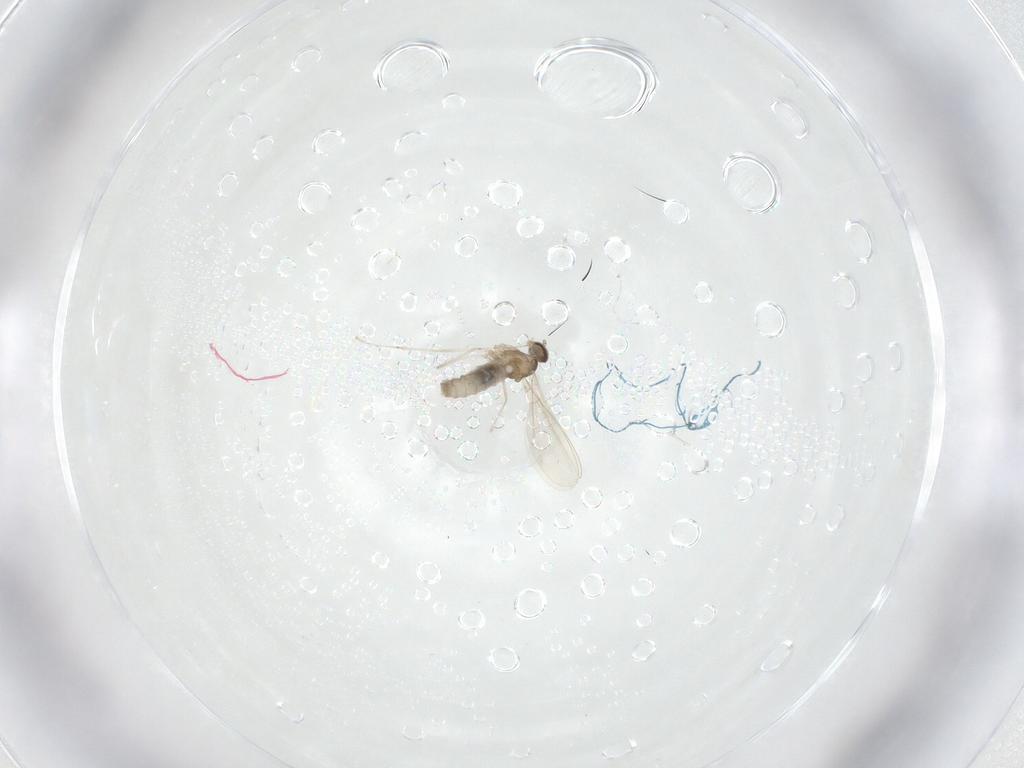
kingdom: Animalia
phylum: Arthropoda
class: Insecta
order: Diptera
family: Cecidomyiidae
